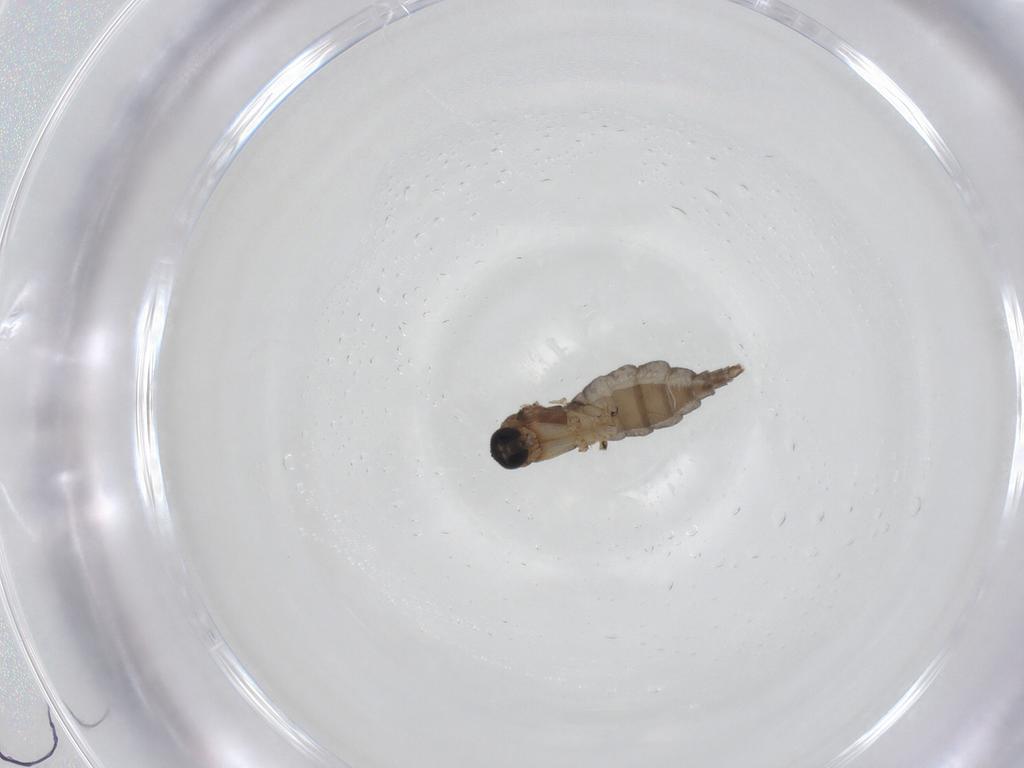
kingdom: Animalia
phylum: Arthropoda
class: Insecta
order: Diptera
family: Sciaridae
